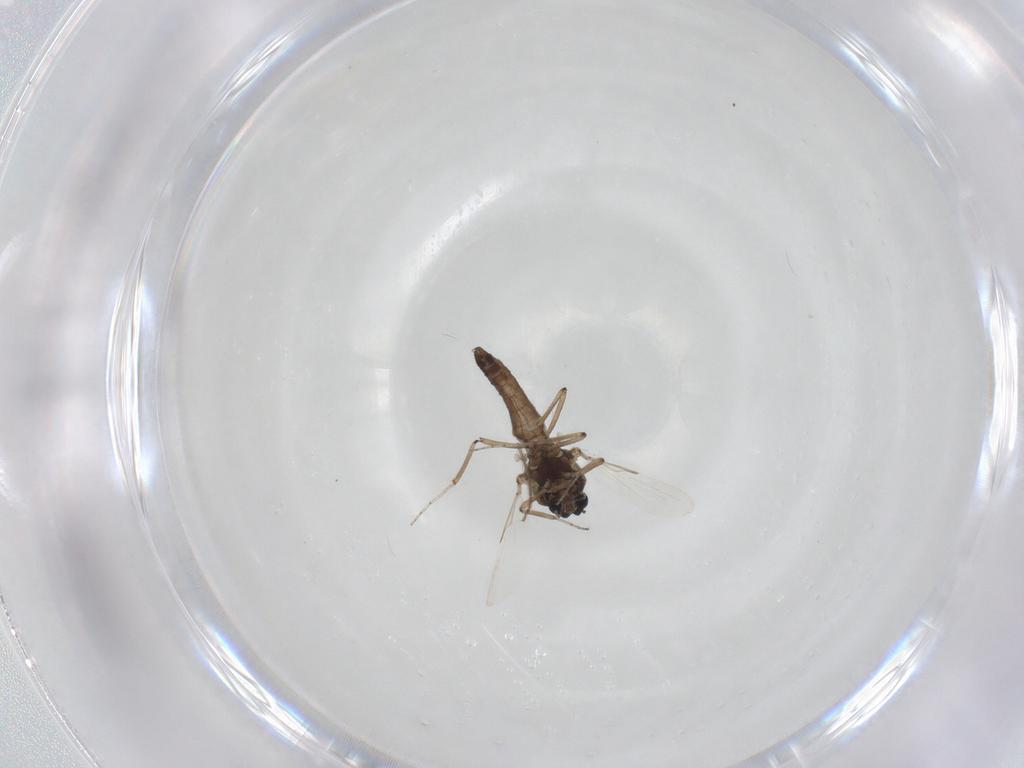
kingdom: Animalia
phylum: Arthropoda
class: Insecta
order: Diptera
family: Ceratopogonidae
